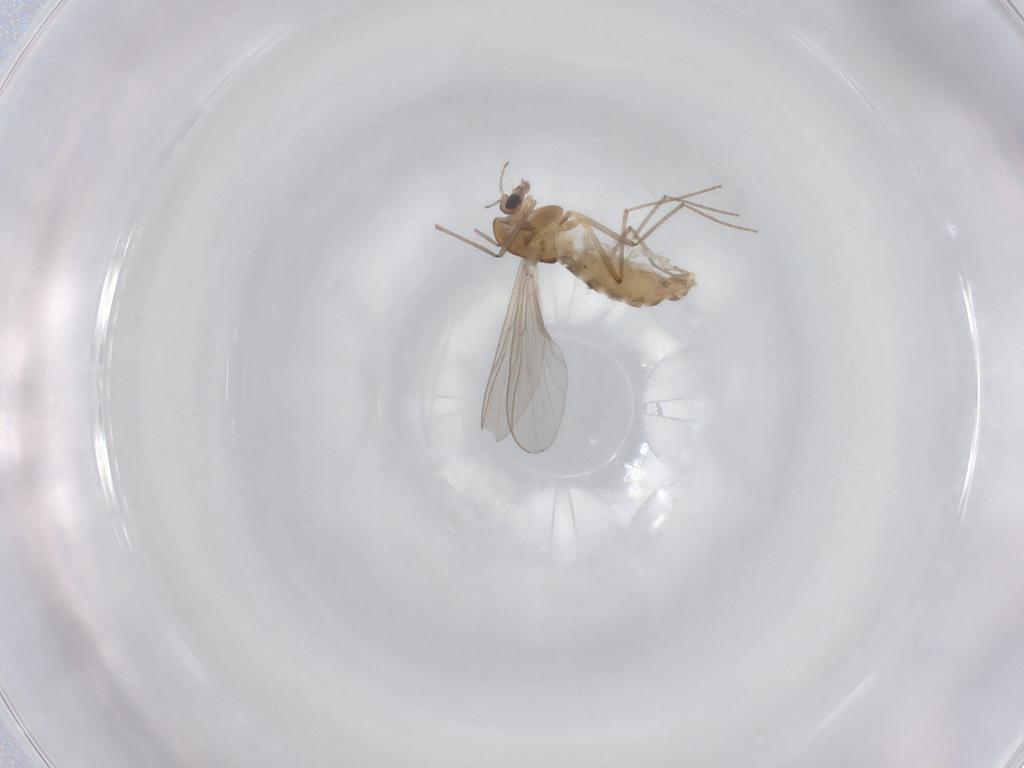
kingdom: Animalia
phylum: Arthropoda
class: Insecta
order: Diptera
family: Chironomidae
